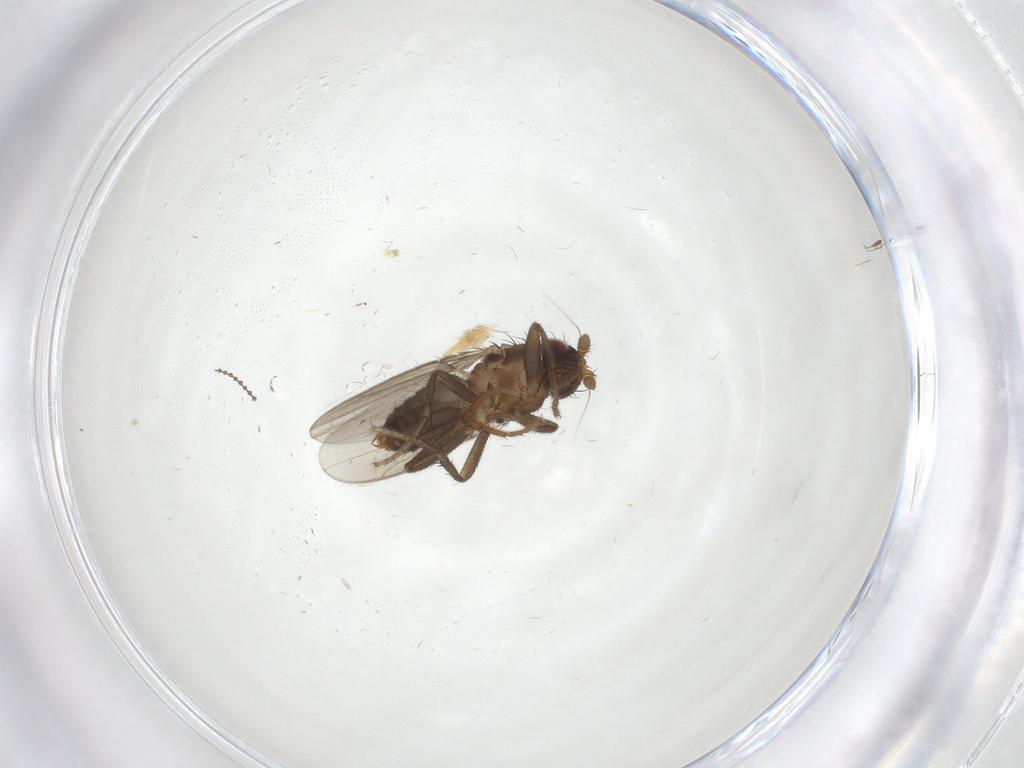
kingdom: Animalia
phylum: Arthropoda
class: Insecta
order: Diptera
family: Sphaeroceridae
